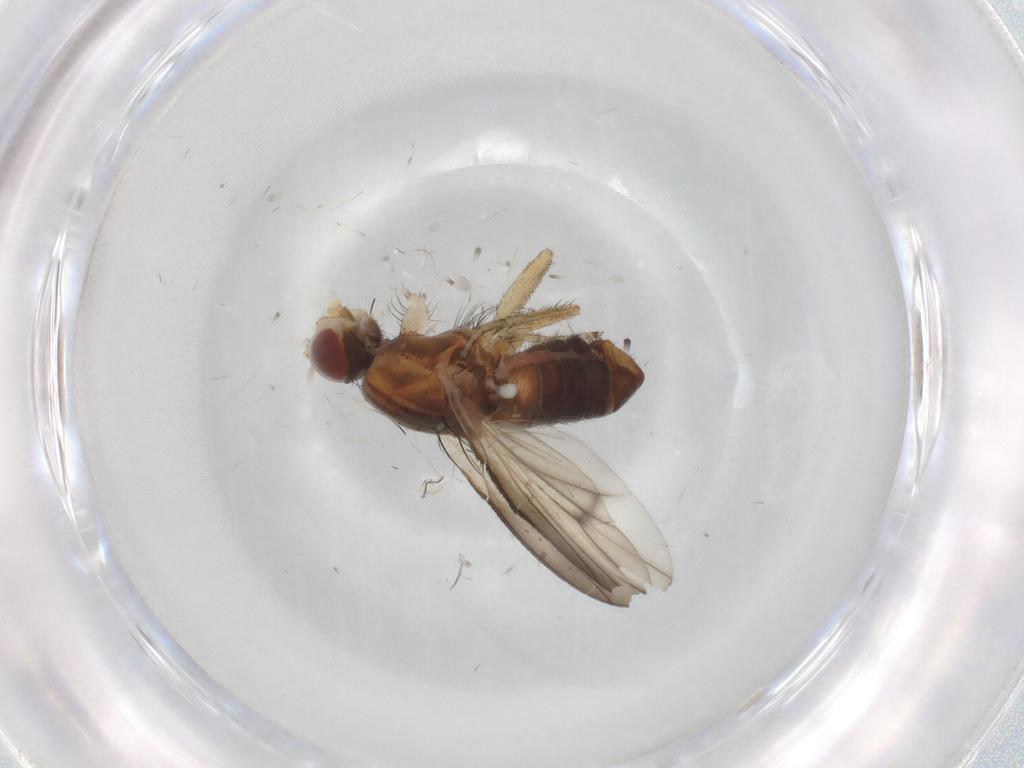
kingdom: Animalia
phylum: Arthropoda
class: Insecta
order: Diptera
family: Heleomyzidae
